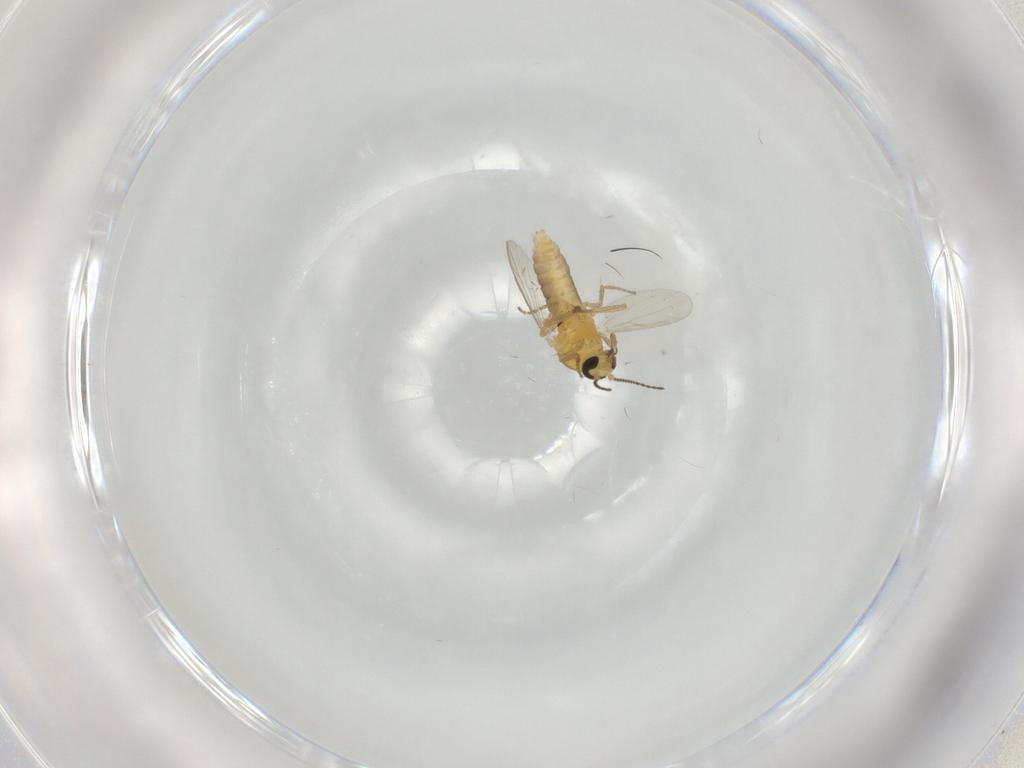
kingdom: Animalia
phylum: Arthropoda
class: Insecta
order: Diptera
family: Ceratopogonidae
